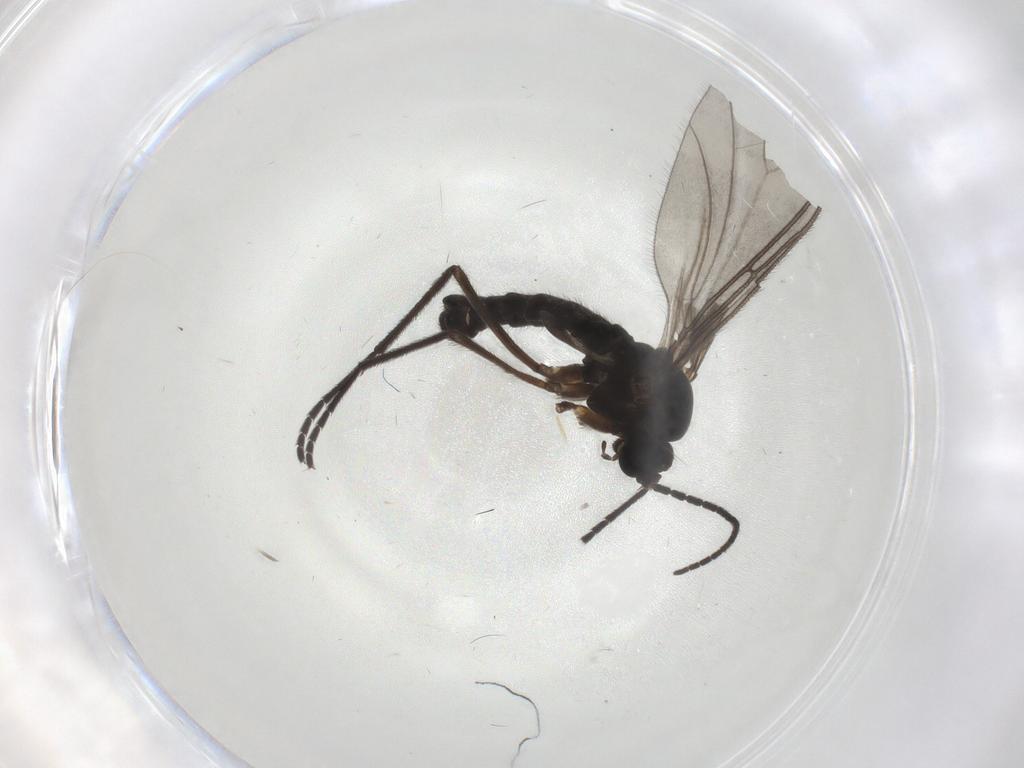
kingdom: Animalia
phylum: Arthropoda
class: Insecta
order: Diptera
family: Sciaridae
